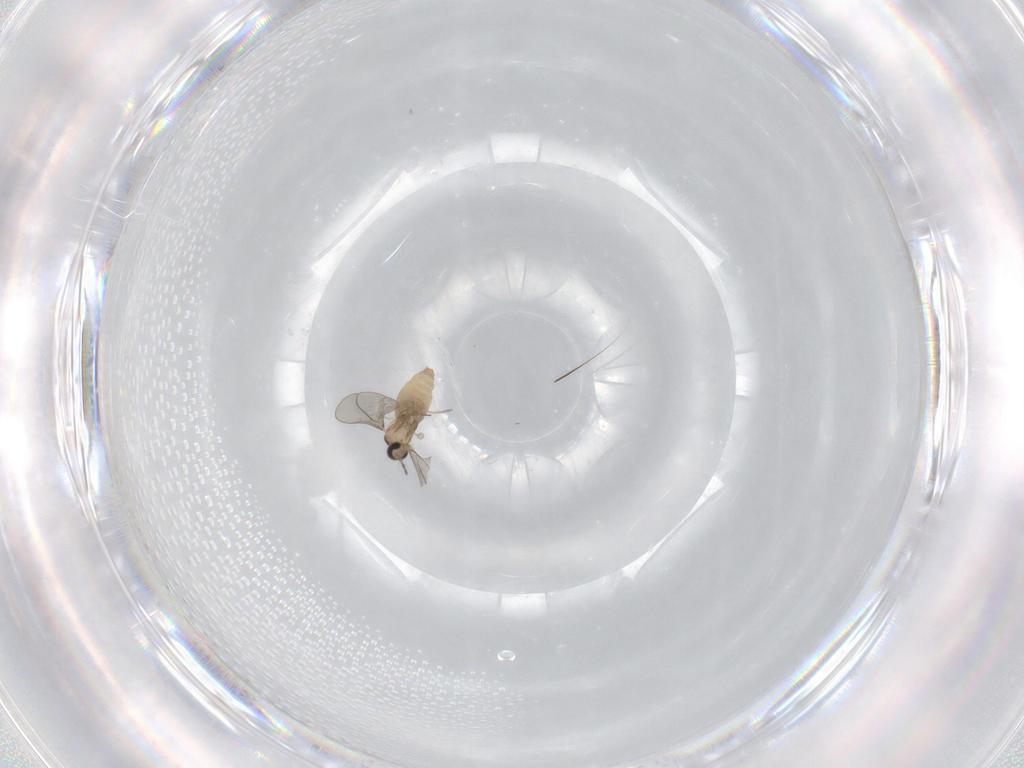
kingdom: Animalia
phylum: Arthropoda
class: Insecta
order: Diptera
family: Cecidomyiidae
